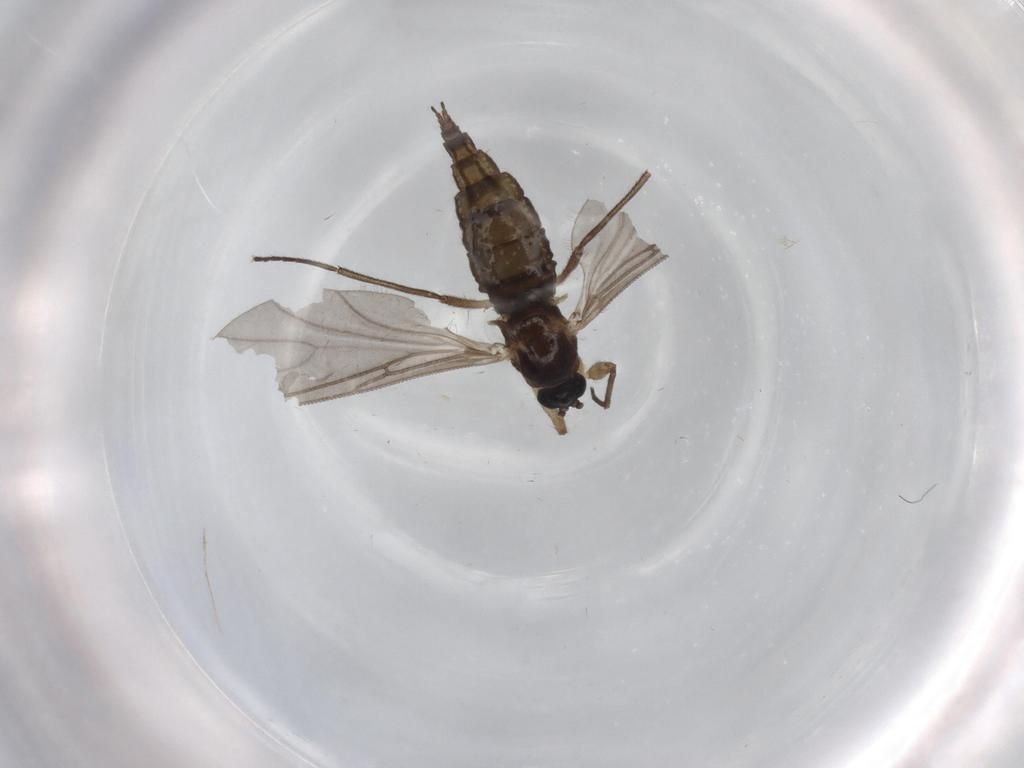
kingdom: Animalia
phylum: Arthropoda
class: Insecta
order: Diptera
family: Sciaridae
